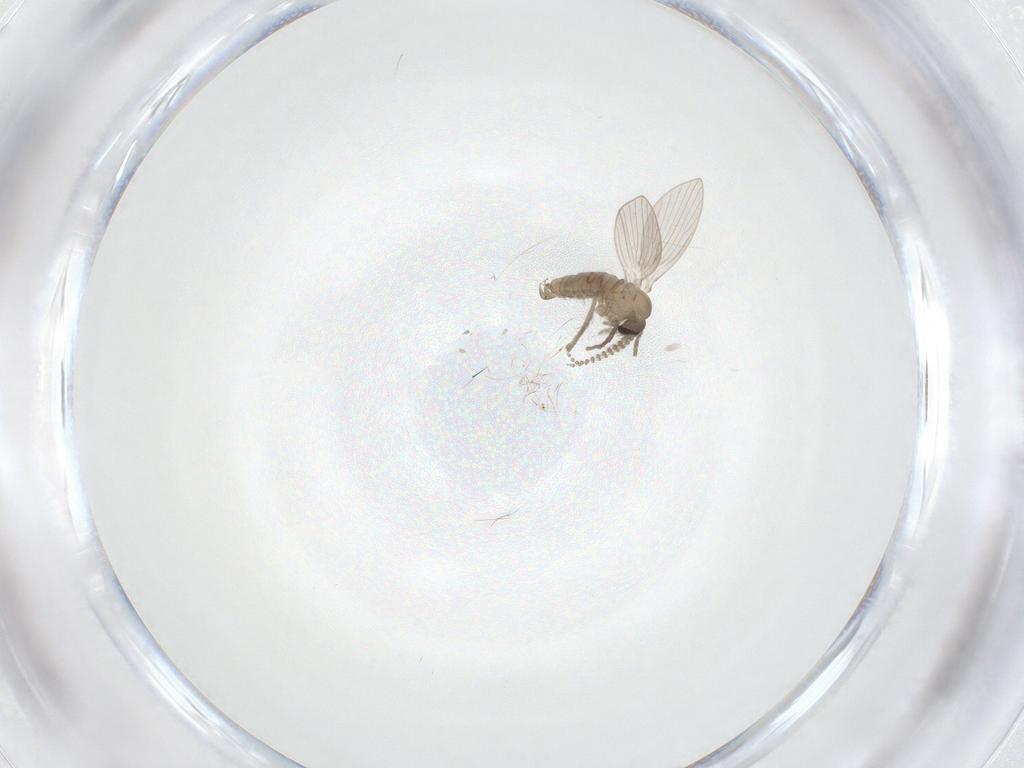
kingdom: Animalia
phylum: Arthropoda
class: Insecta
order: Diptera
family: Psychodidae
